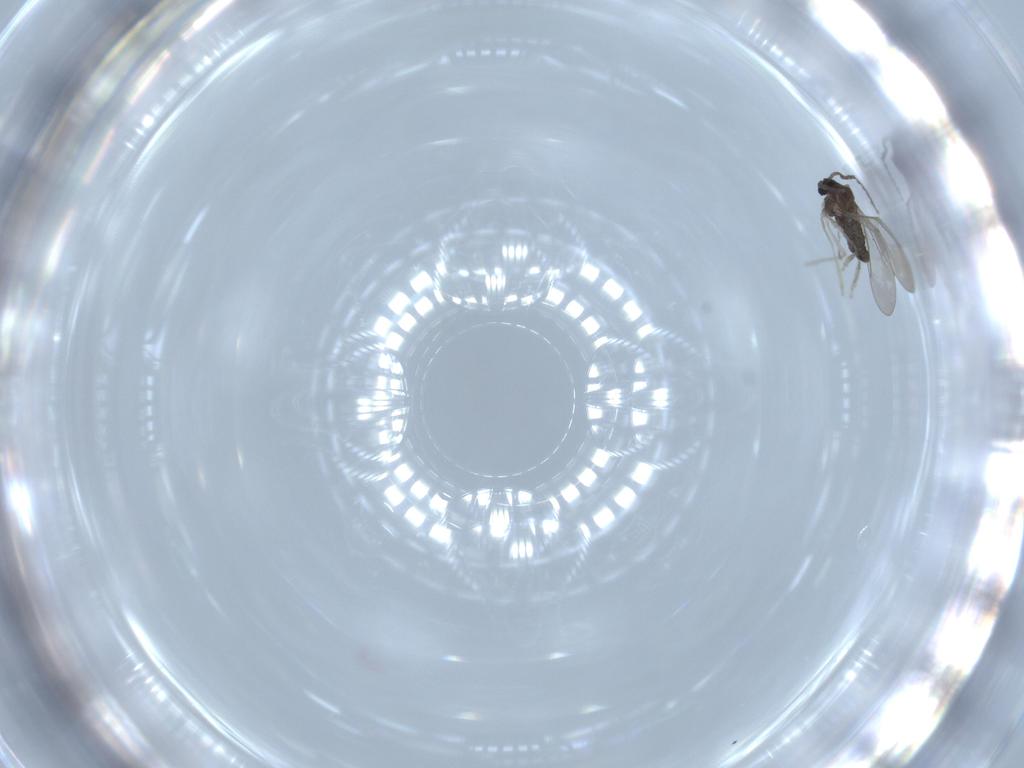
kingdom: Animalia
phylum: Arthropoda
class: Insecta
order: Diptera
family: Cecidomyiidae
